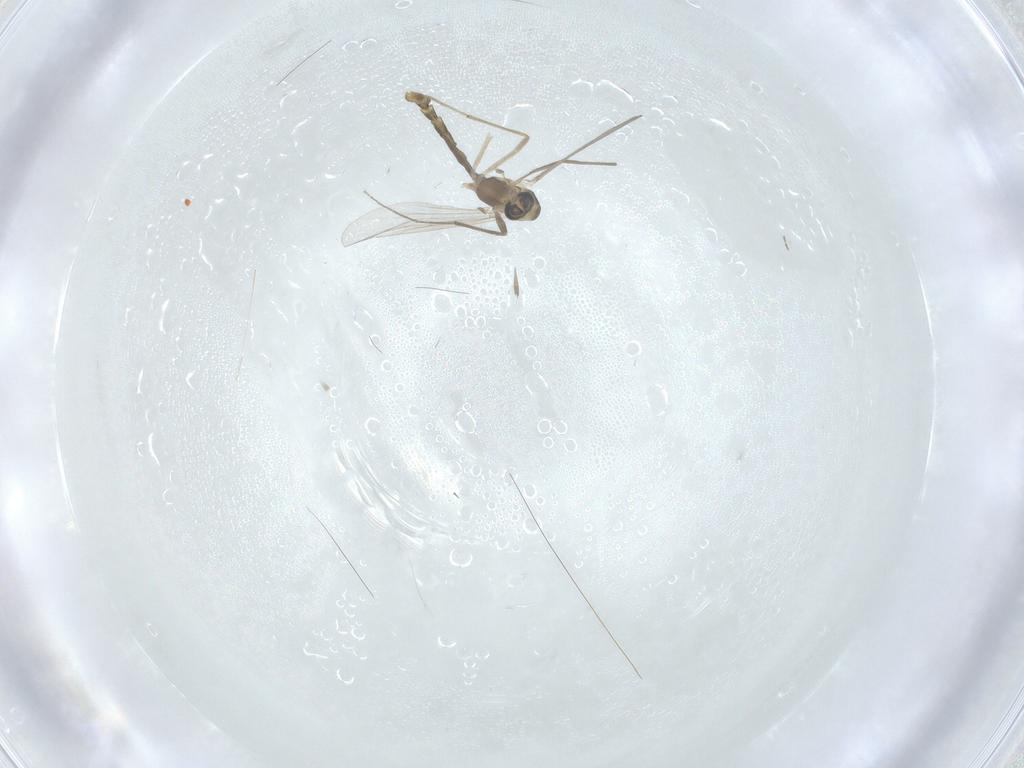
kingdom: Animalia
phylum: Arthropoda
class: Insecta
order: Diptera
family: Chironomidae
